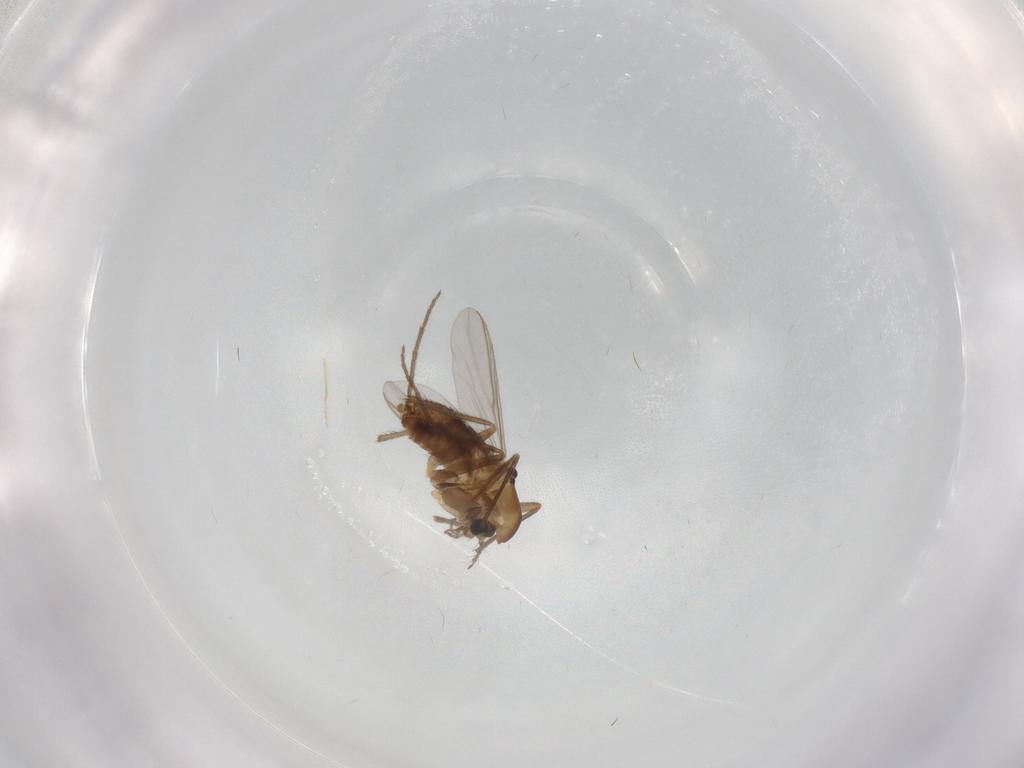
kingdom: Animalia
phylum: Arthropoda
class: Insecta
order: Diptera
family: Chironomidae
